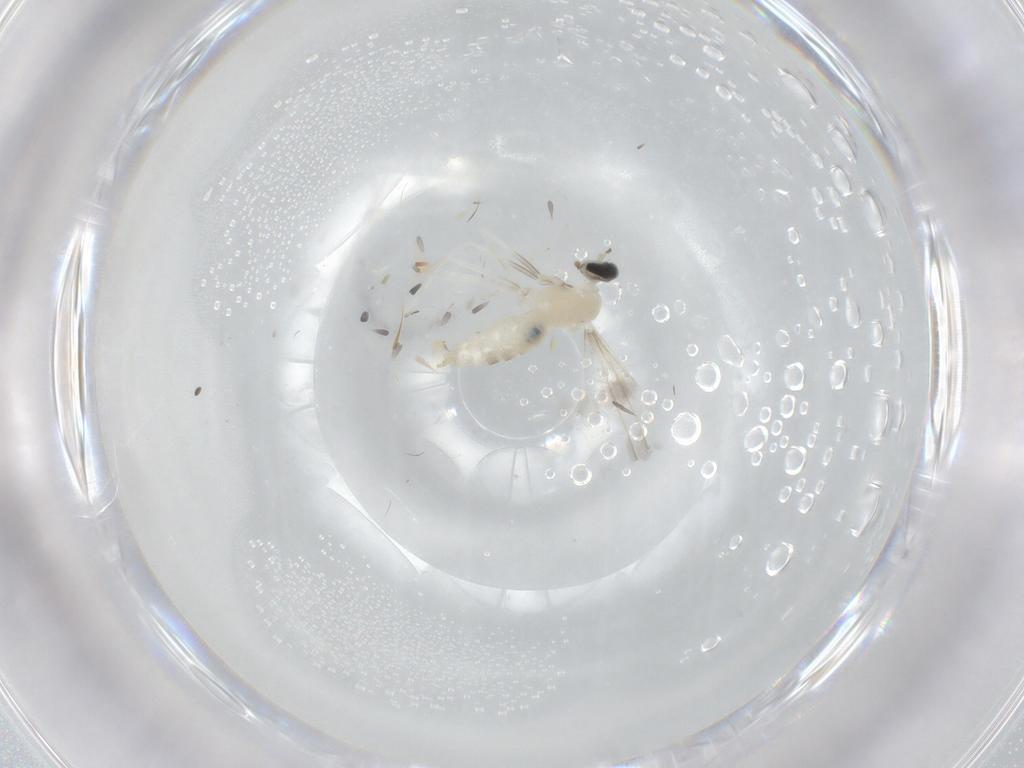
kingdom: Animalia
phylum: Arthropoda
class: Insecta
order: Diptera
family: Cecidomyiidae
